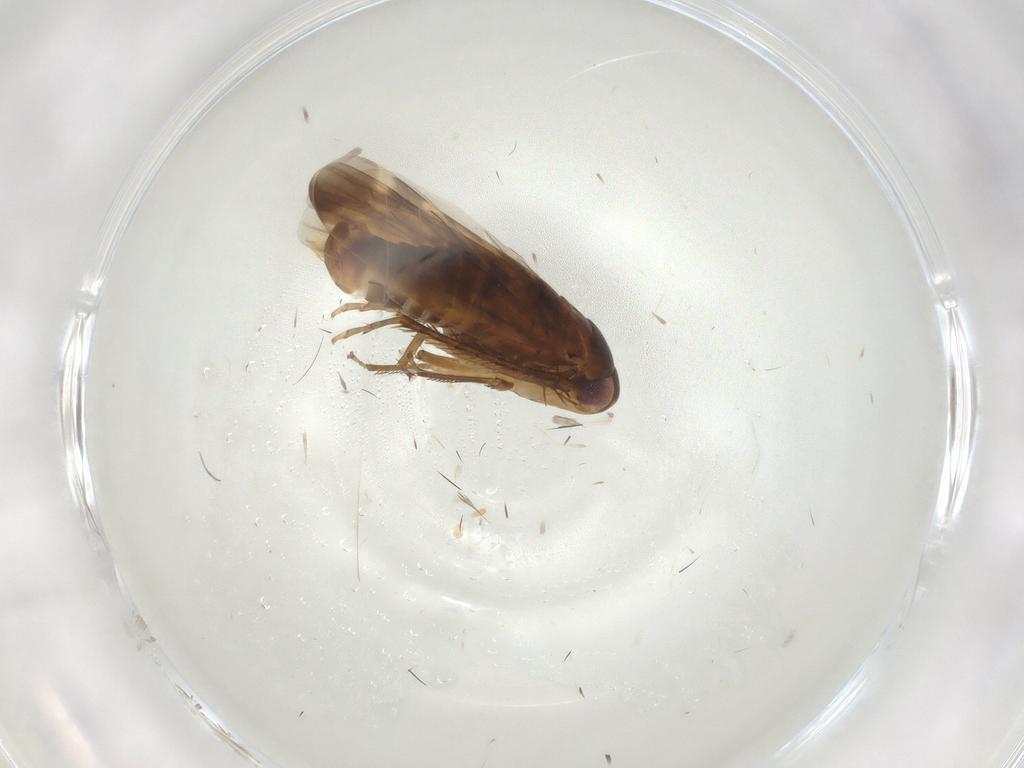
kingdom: Animalia
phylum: Arthropoda
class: Insecta
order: Hemiptera
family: Cicadellidae
